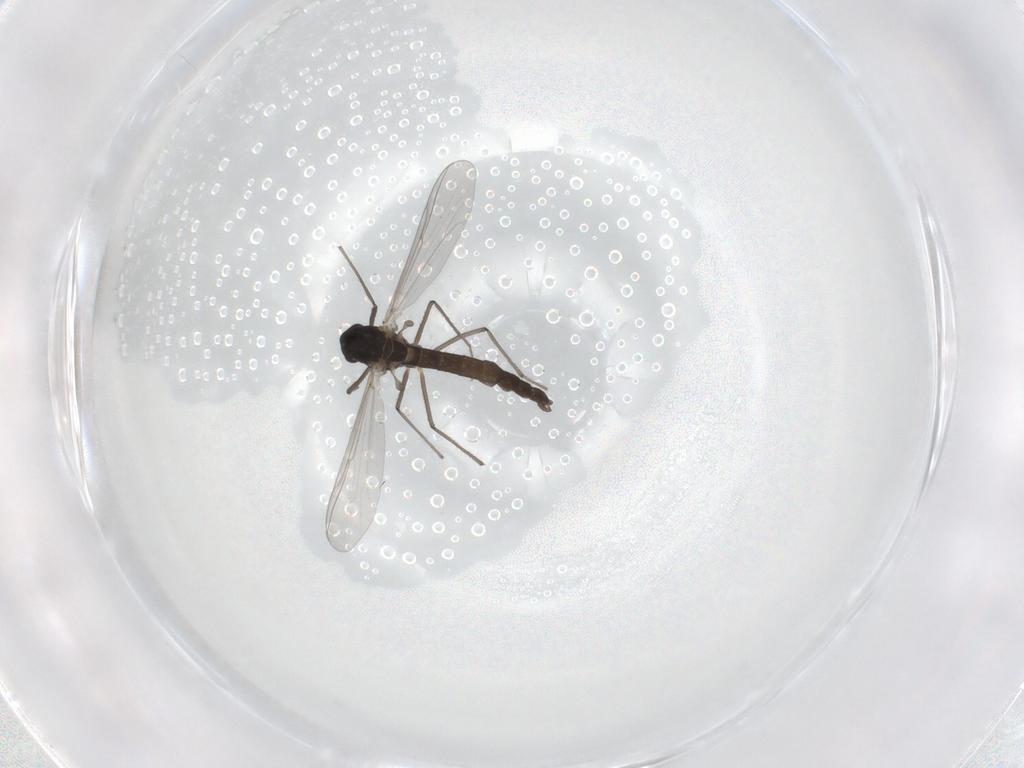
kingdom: Animalia
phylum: Arthropoda
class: Insecta
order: Diptera
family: Chironomidae
